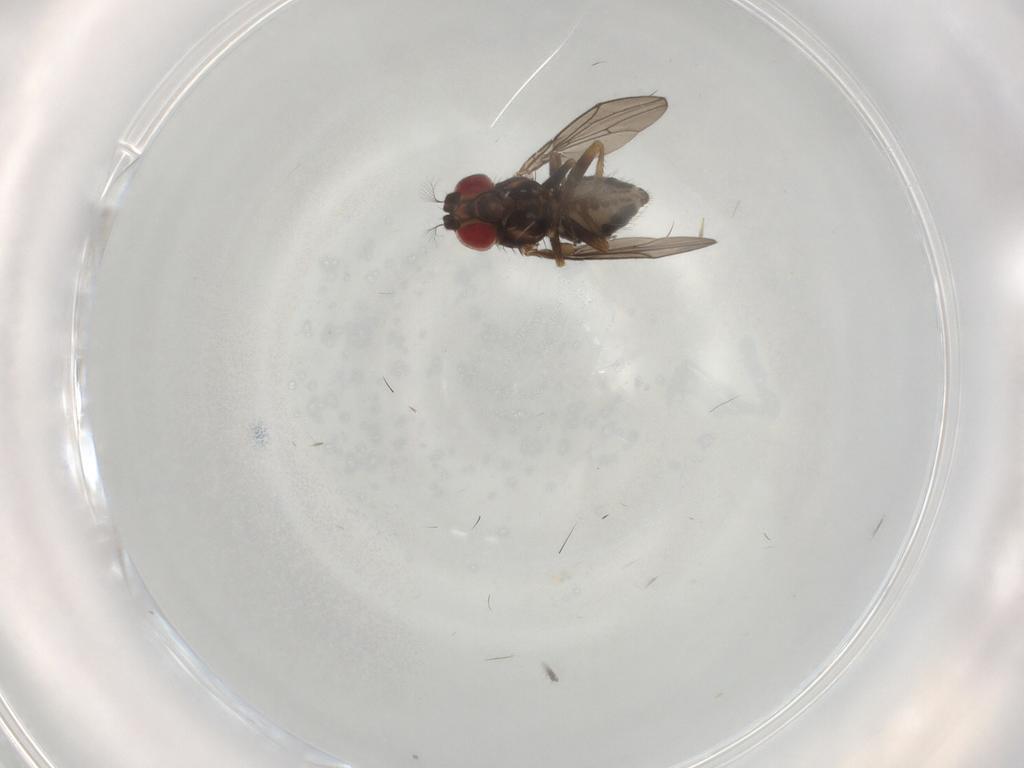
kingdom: Animalia
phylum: Arthropoda
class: Insecta
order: Diptera
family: Drosophilidae
